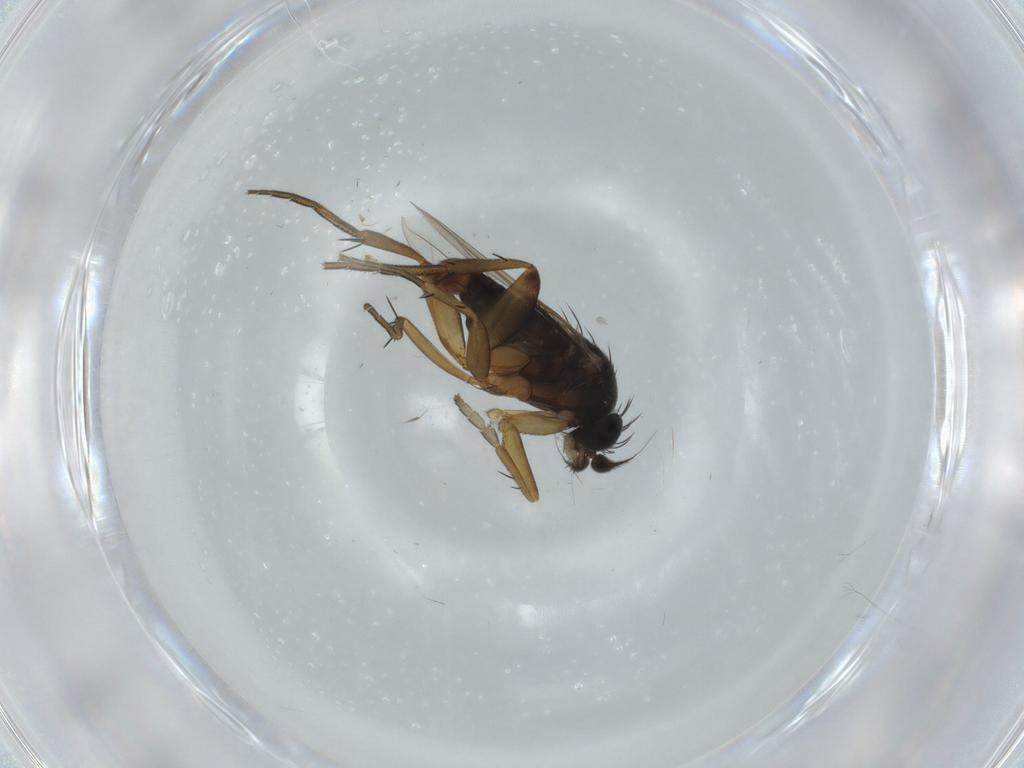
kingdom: Animalia
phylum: Arthropoda
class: Insecta
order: Diptera
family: Phoridae
